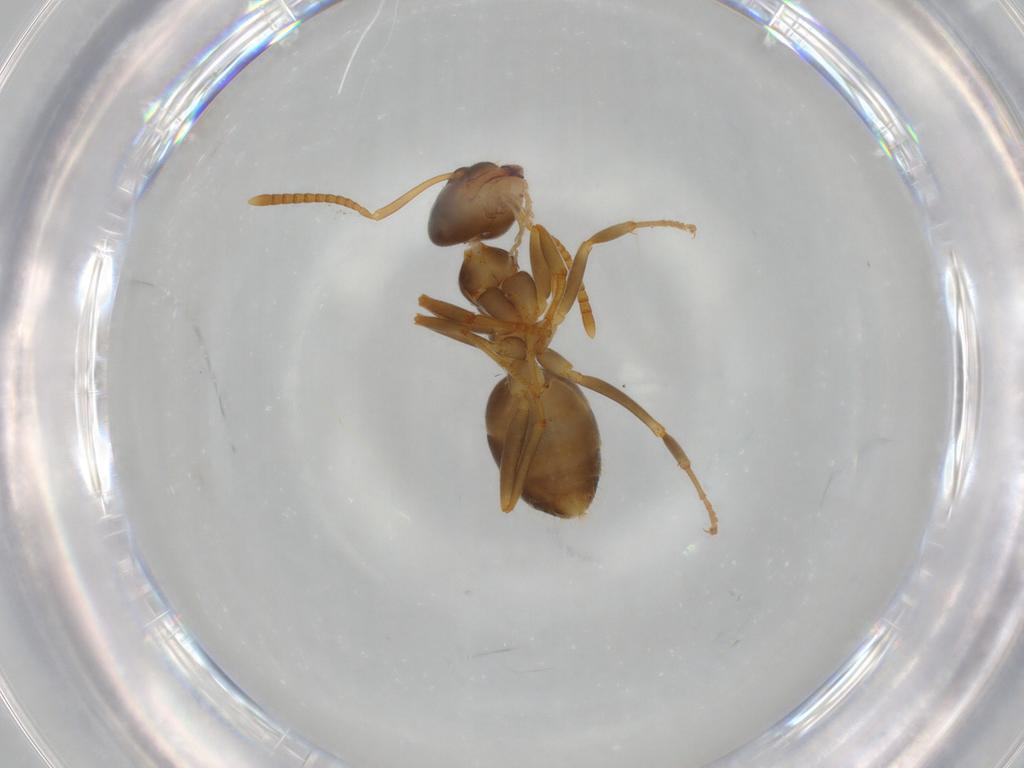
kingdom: Animalia
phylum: Arthropoda
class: Insecta
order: Hymenoptera
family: Formicidae
